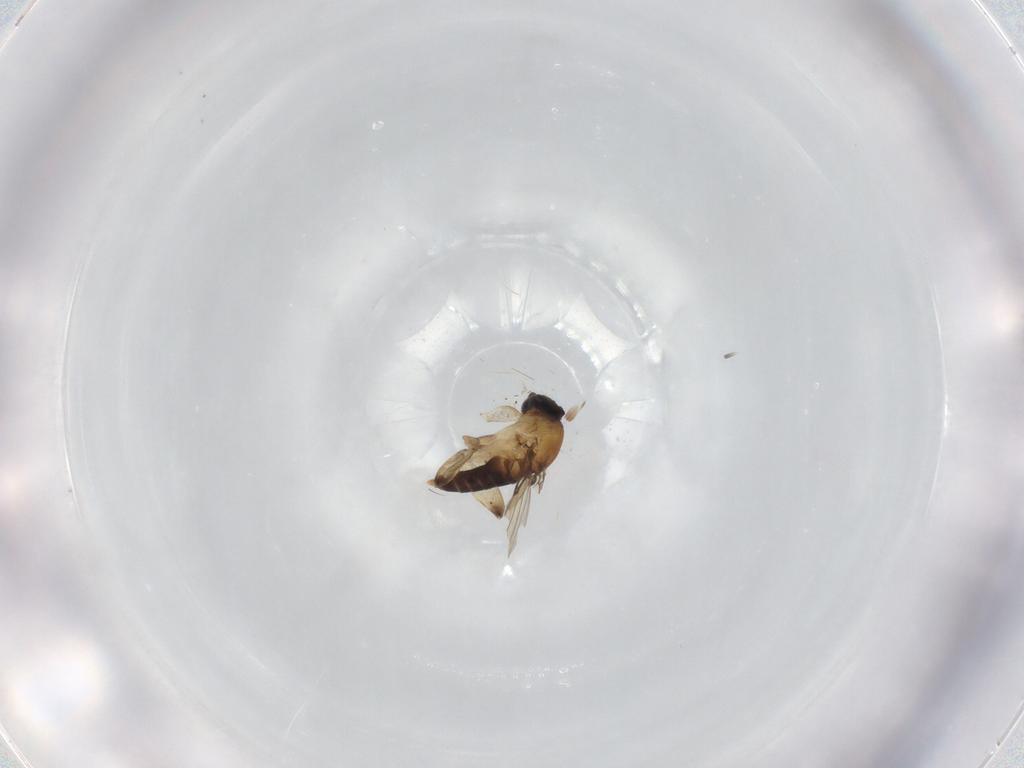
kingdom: Animalia
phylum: Arthropoda
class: Insecta
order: Diptera
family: Phoridae
